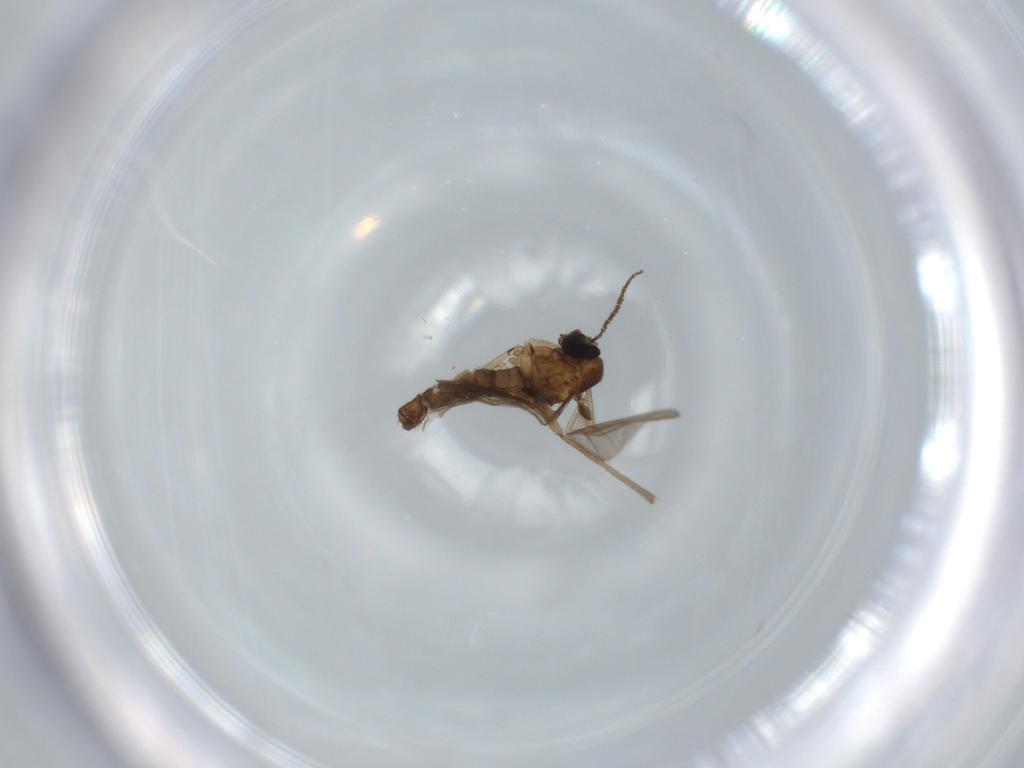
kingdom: Animalia
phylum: Arthropoda
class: Insecta
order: Diptera
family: Cecidomyiidae
